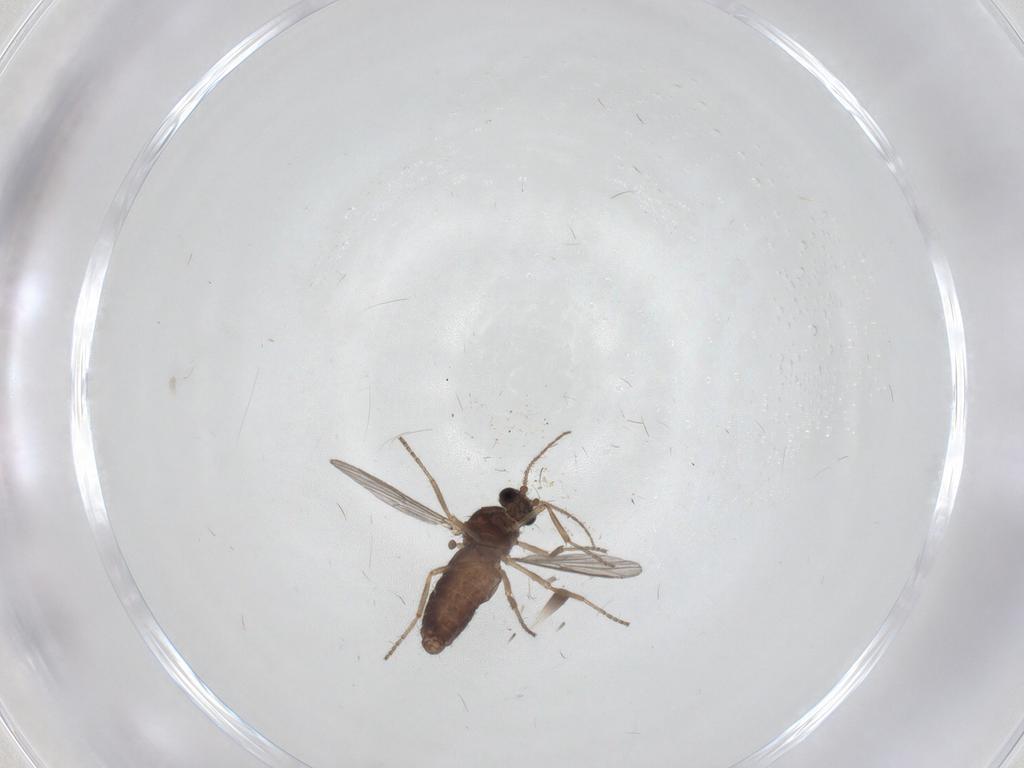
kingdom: Animalia
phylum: Arthropoda
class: Insecta
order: Diptera
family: Ceratopogonidae
